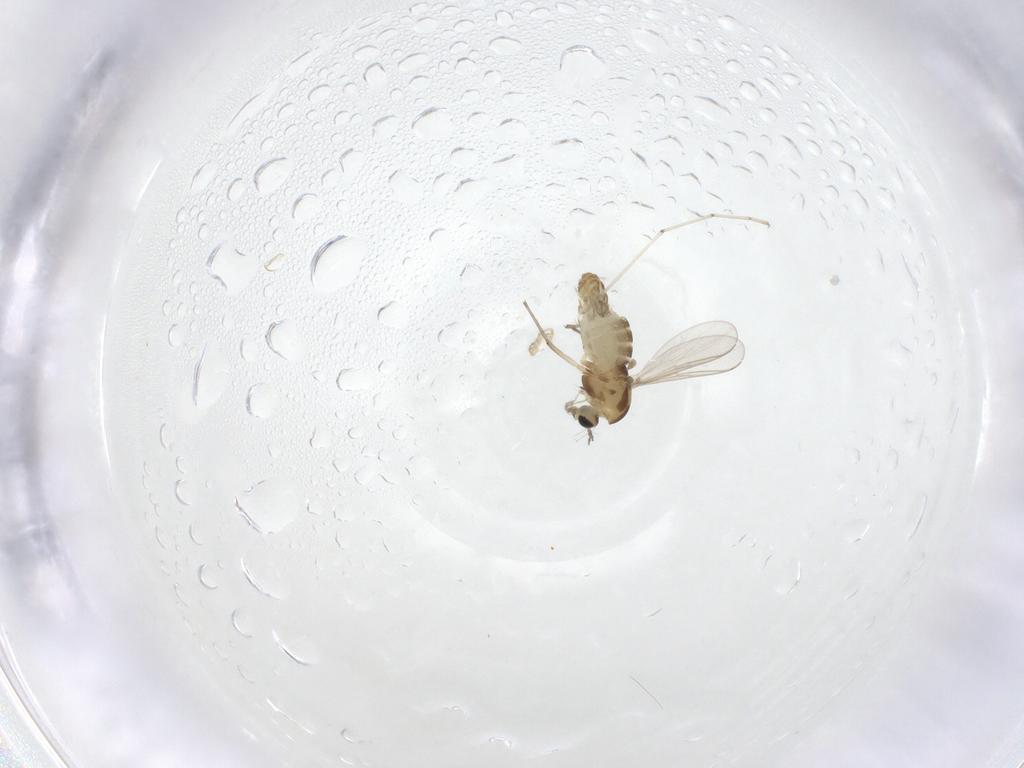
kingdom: Animalia
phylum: Arthropoda
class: Insecta
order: Diptera
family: Chironomidae
